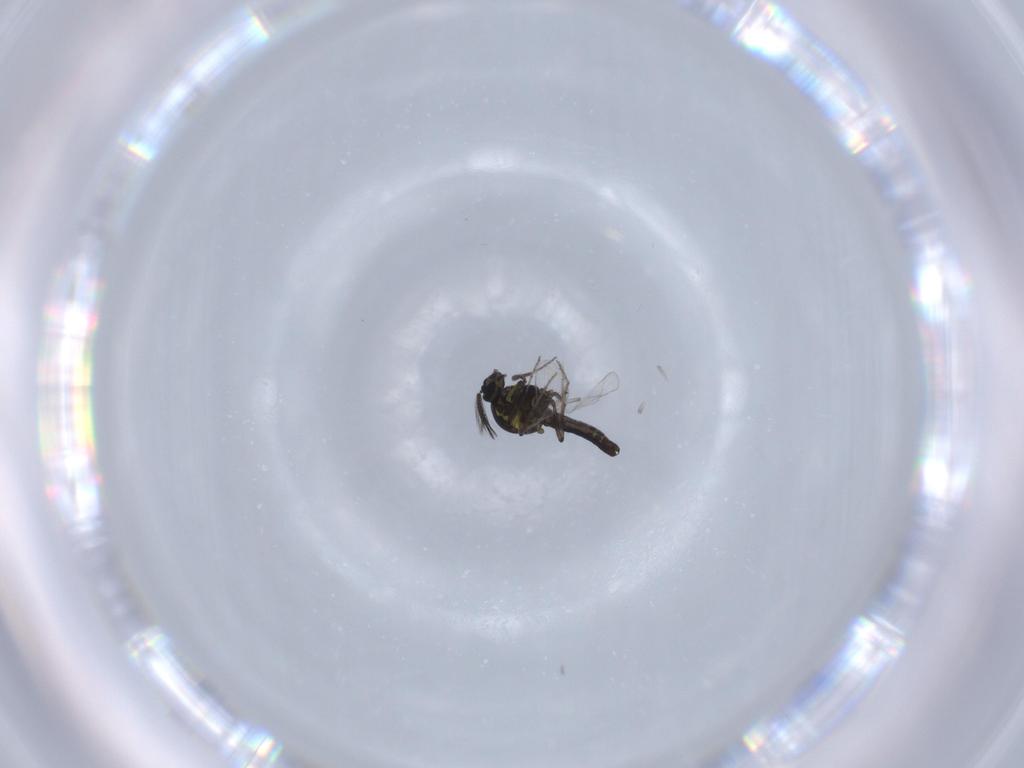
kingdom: Animalia
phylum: Arthropoda
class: Insecta
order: Diptera
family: Ceratopogonidae
